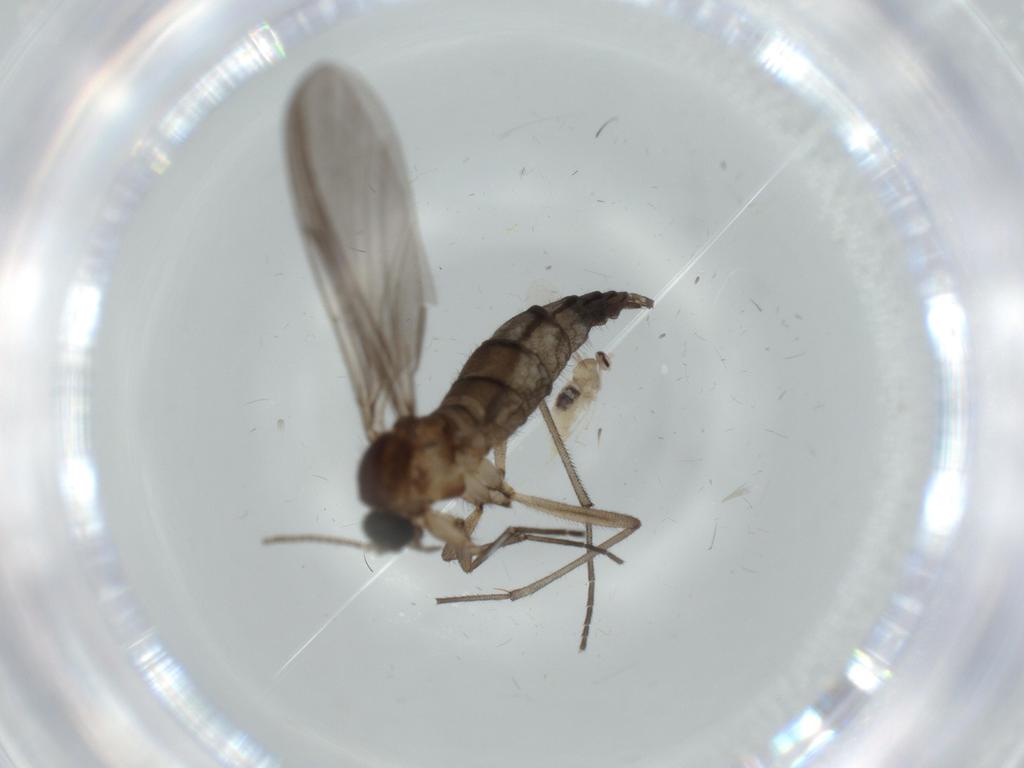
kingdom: Animalia
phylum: Arthropoda
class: Insecta
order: Diptera
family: Sciaridae
